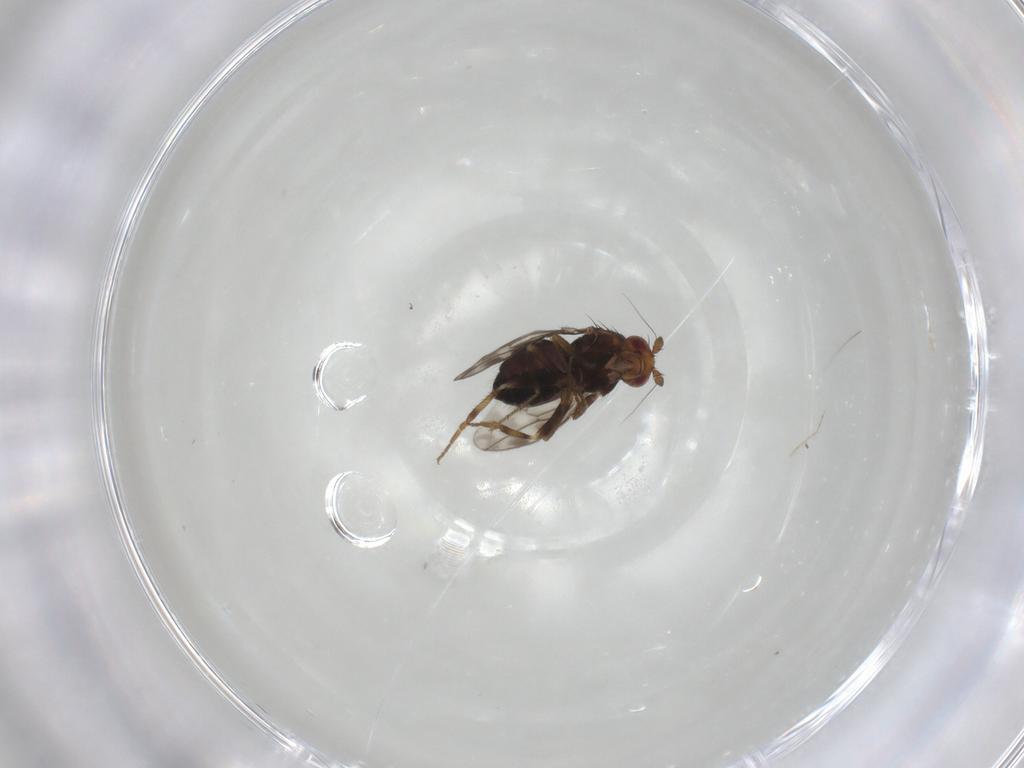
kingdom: Animalia
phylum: Arthropoda
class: Insecta
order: Diptera
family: Sphaeroceridae
